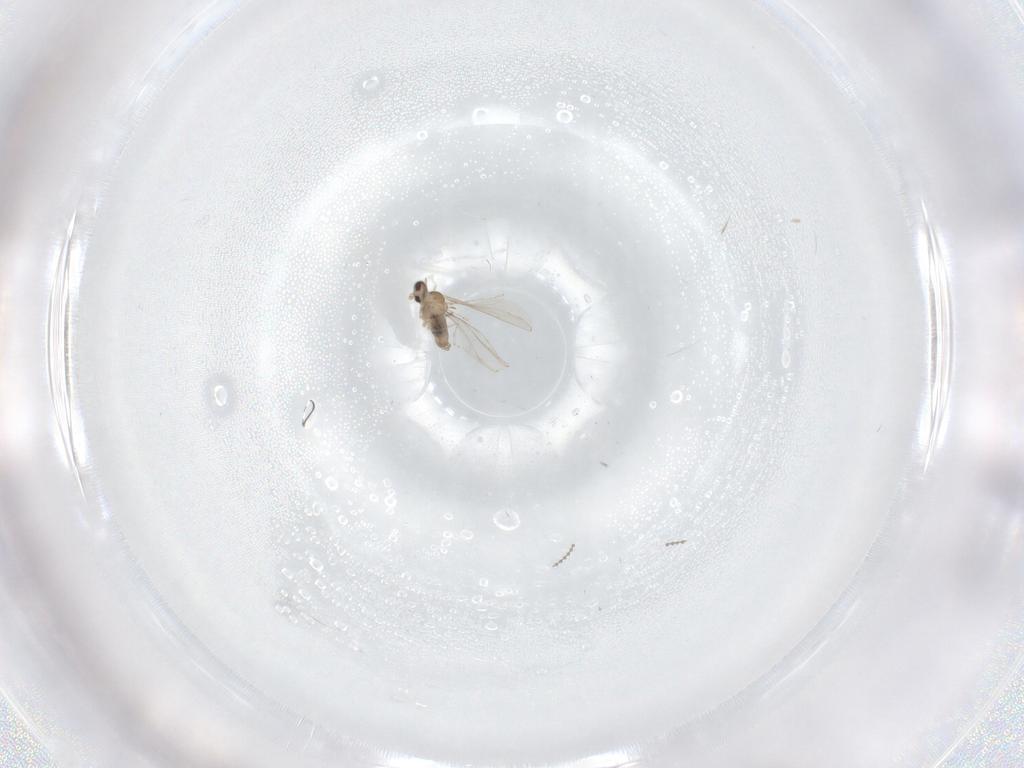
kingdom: Animalia
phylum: Arthropoda
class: Insecta
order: Diptera
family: Cecidomyiidae
